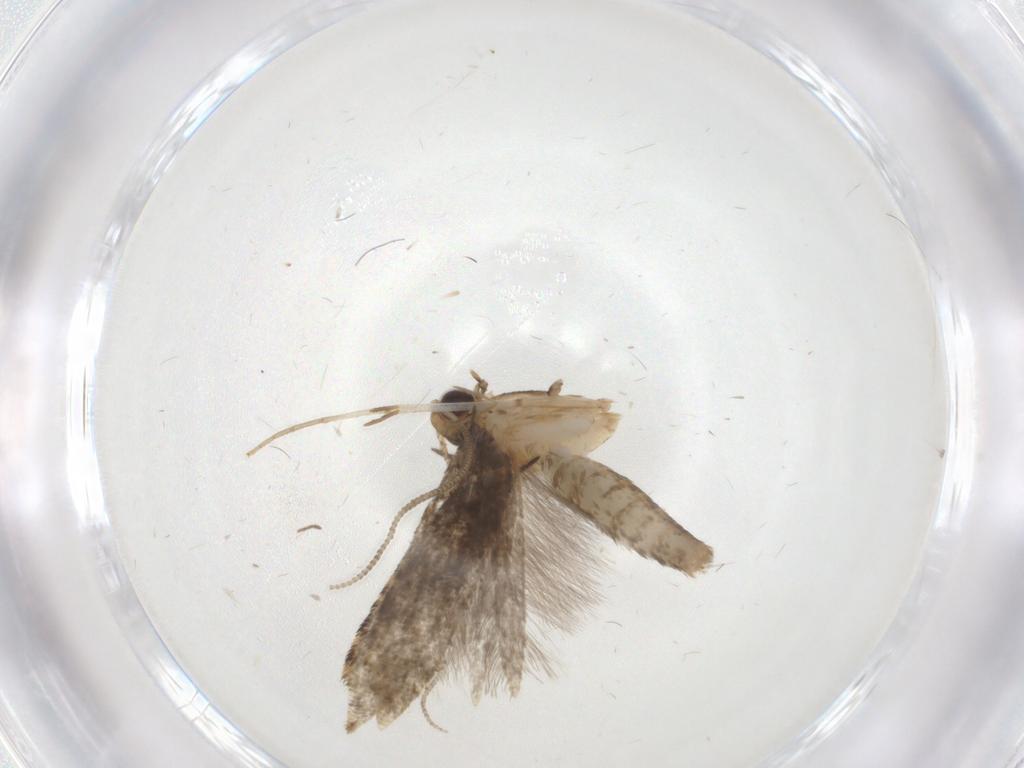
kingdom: Animalia
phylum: Arthropoda
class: Insecta
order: Lepidoptera
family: Tineidae
